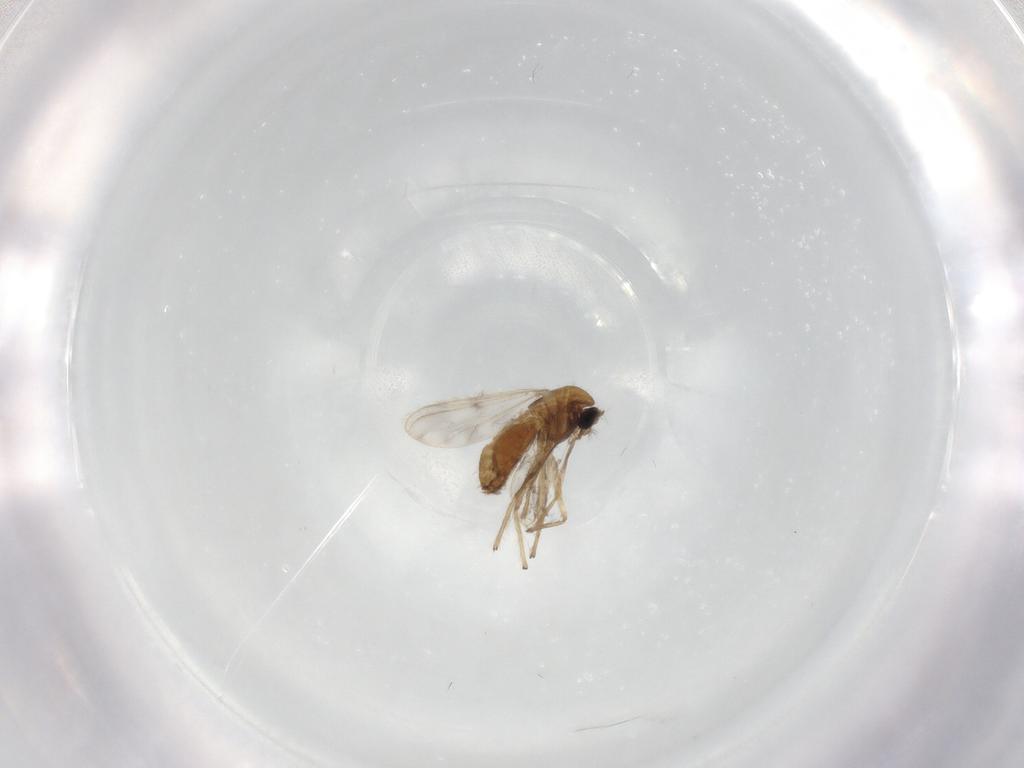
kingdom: Animalia
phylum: Arthropoda
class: Insecta
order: Diptera
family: Chironomidae
